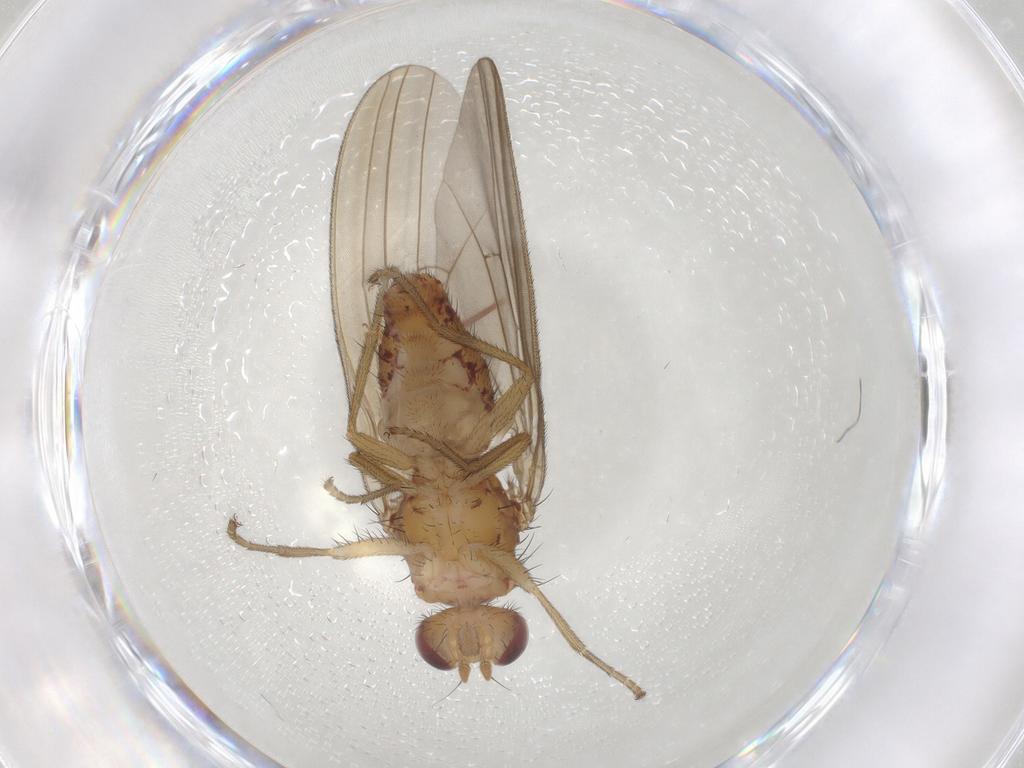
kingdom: Animalia
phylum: Arthropoda
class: Insecta
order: Diptera
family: Natalimyzidae
